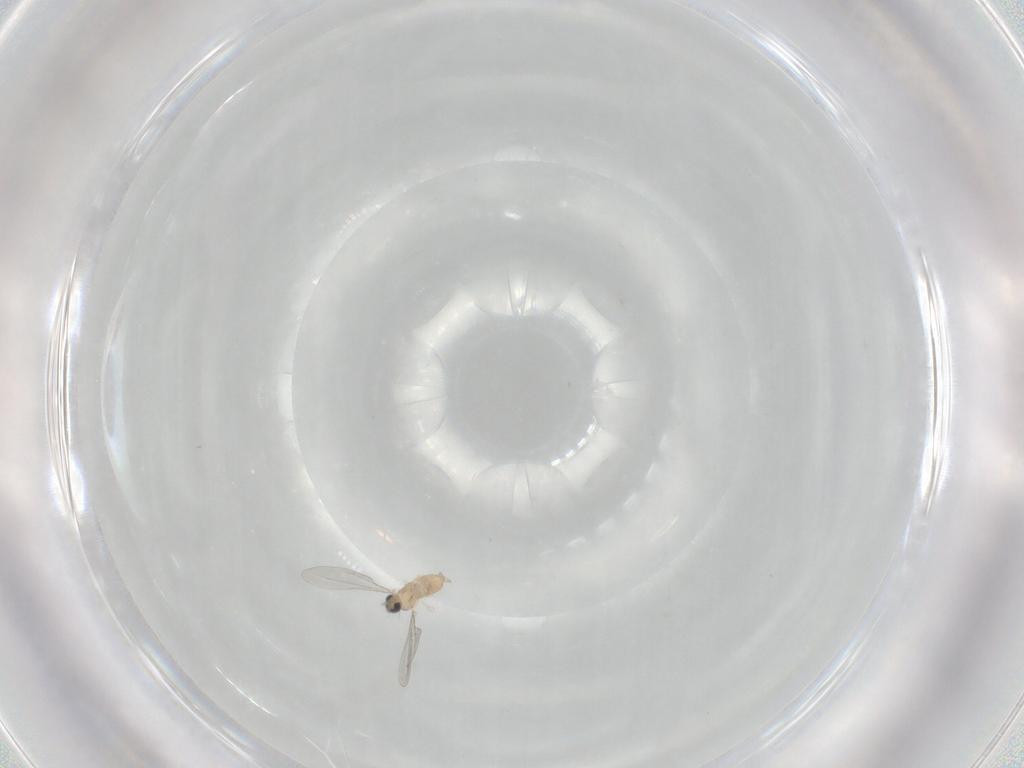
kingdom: Animalia
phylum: Arthropoda
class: Insecta
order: Diptera
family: Cecidomyiidae
